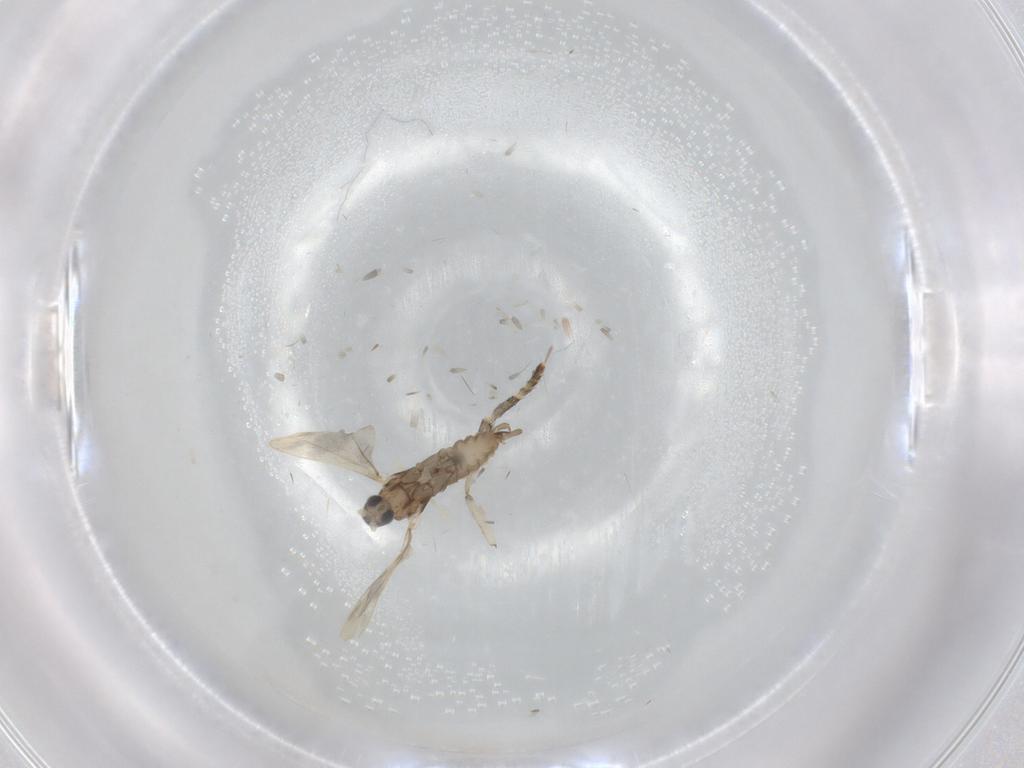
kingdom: Animalia
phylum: Arthropoda
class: Insecta
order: Diptera
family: Cecidomyiidae
